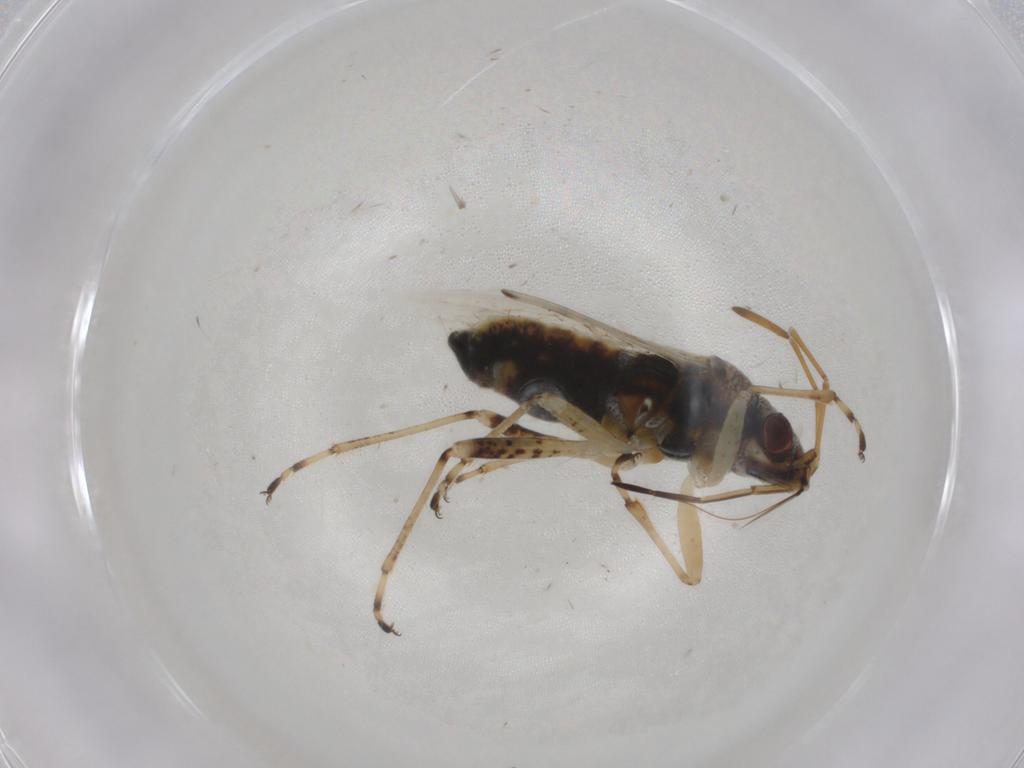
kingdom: Animalia
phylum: Arthropoda
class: Insecta
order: Hemiptera
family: Lygaeidae
